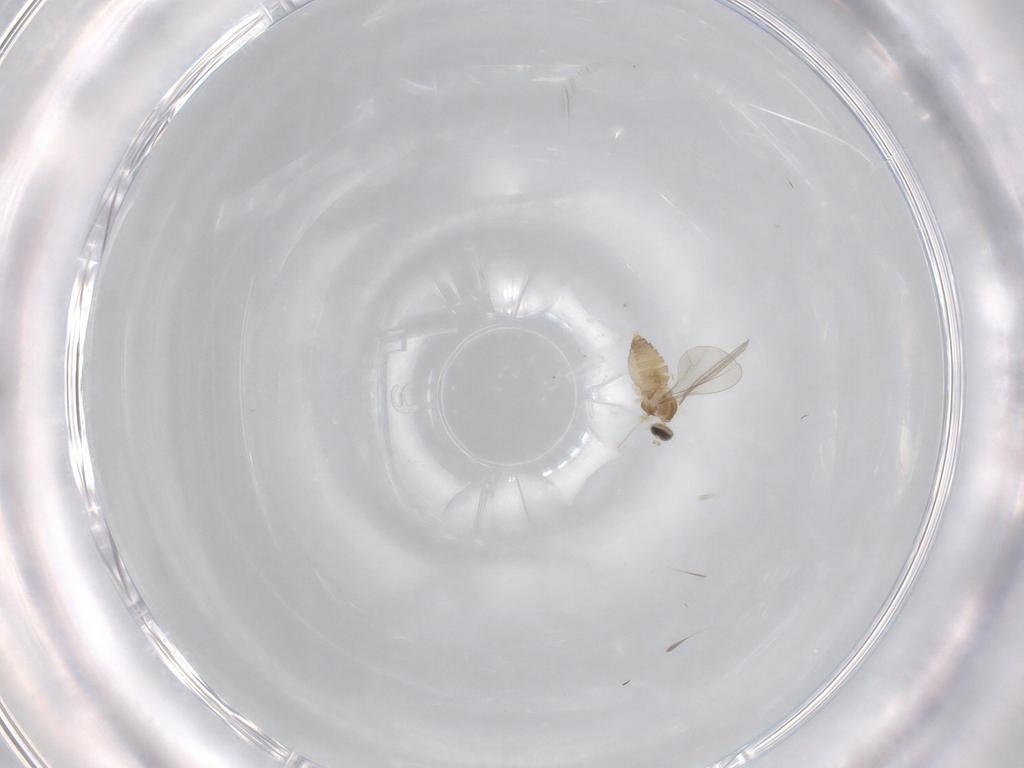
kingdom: Animalia
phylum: Arthropoda
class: Insecta
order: Diptera
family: Cecidomyiidae
